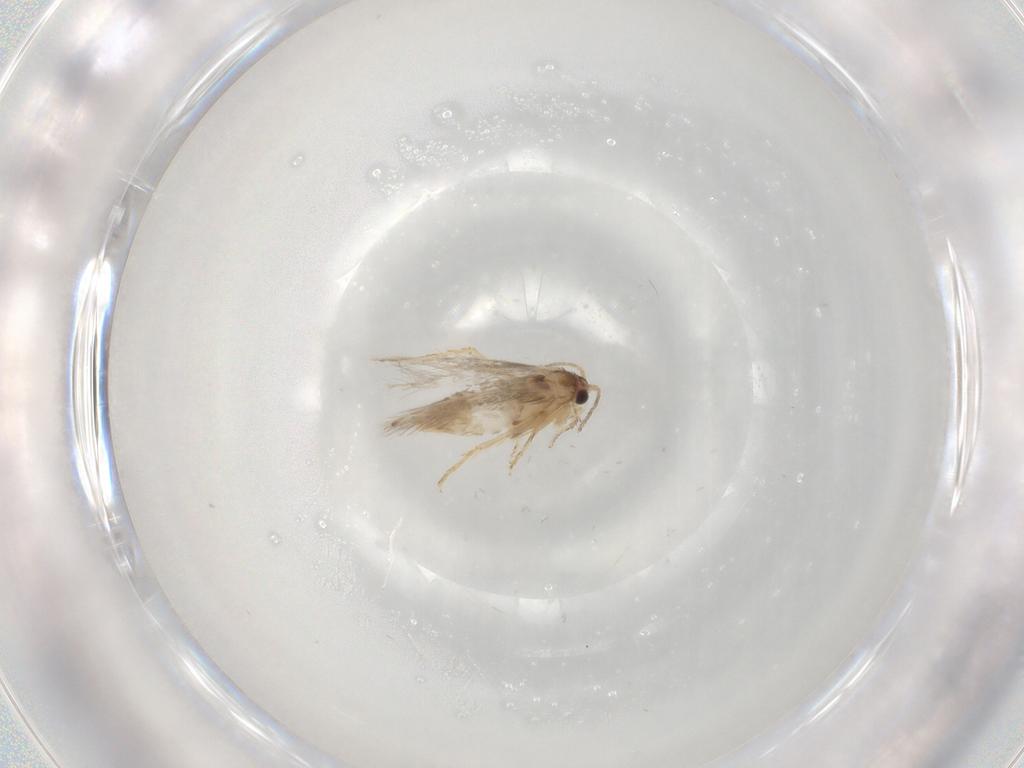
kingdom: Animalia
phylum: Arthropoda
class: Insecta
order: Lepidoptera
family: Nepticulidae
